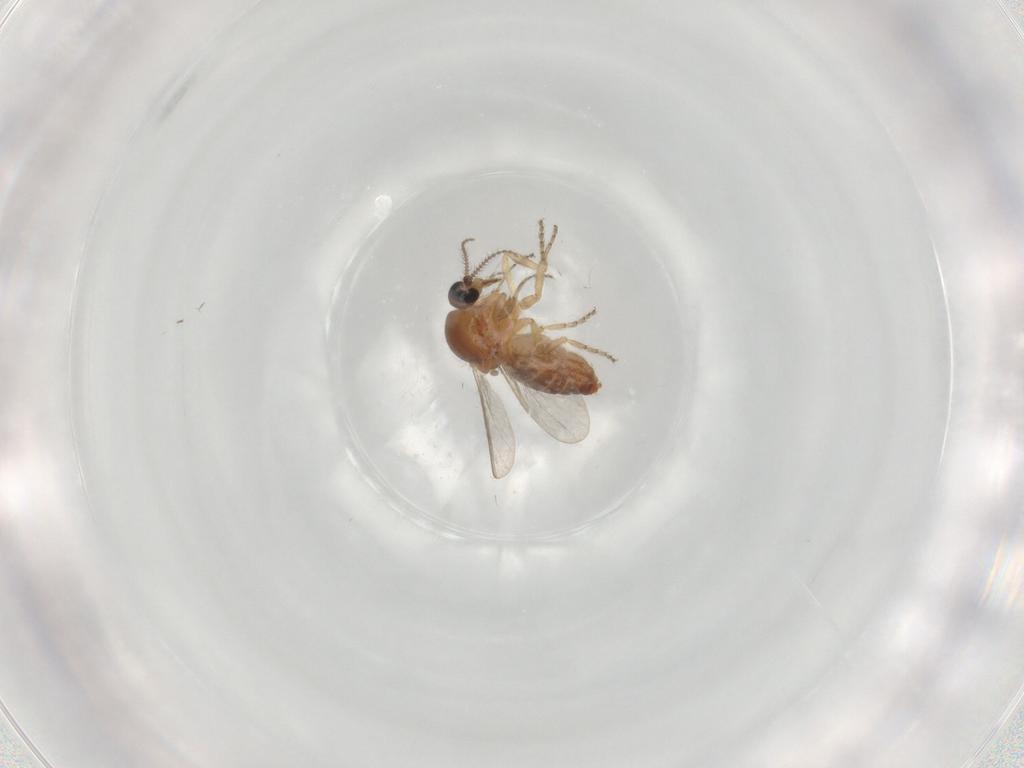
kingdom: Animalia
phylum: Arthropoda
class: Insecta
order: Diptera
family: Ceratopogonidae
